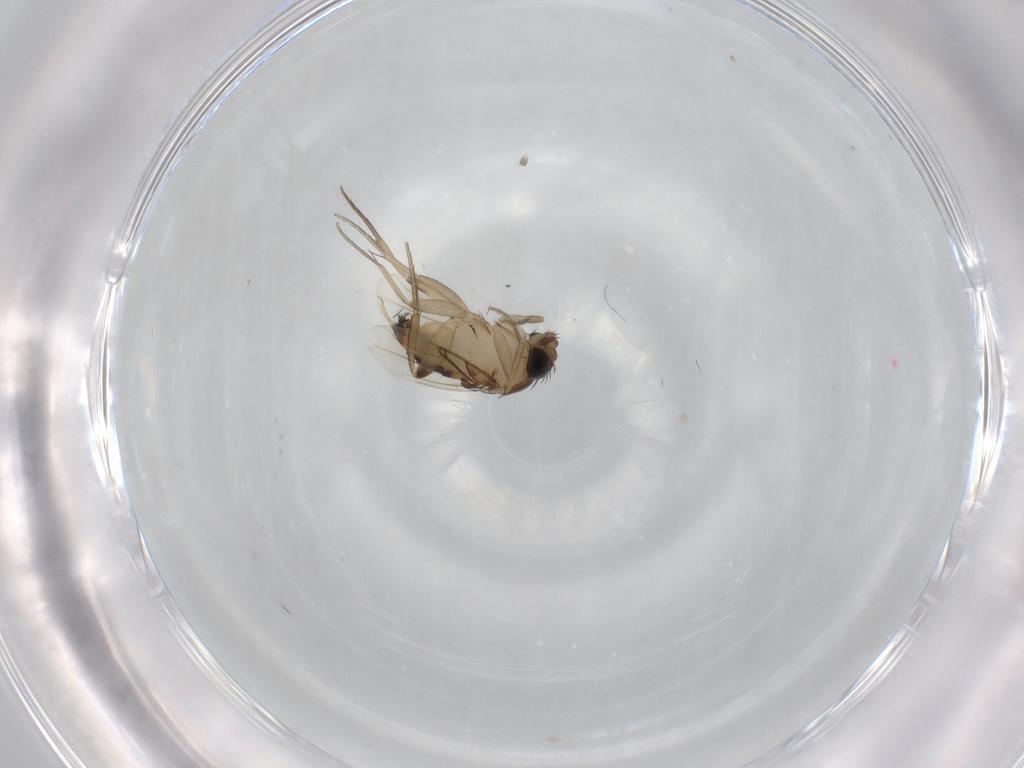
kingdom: Animalia
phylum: Arthropoda
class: Insecta
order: Diptera
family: Phoridae
